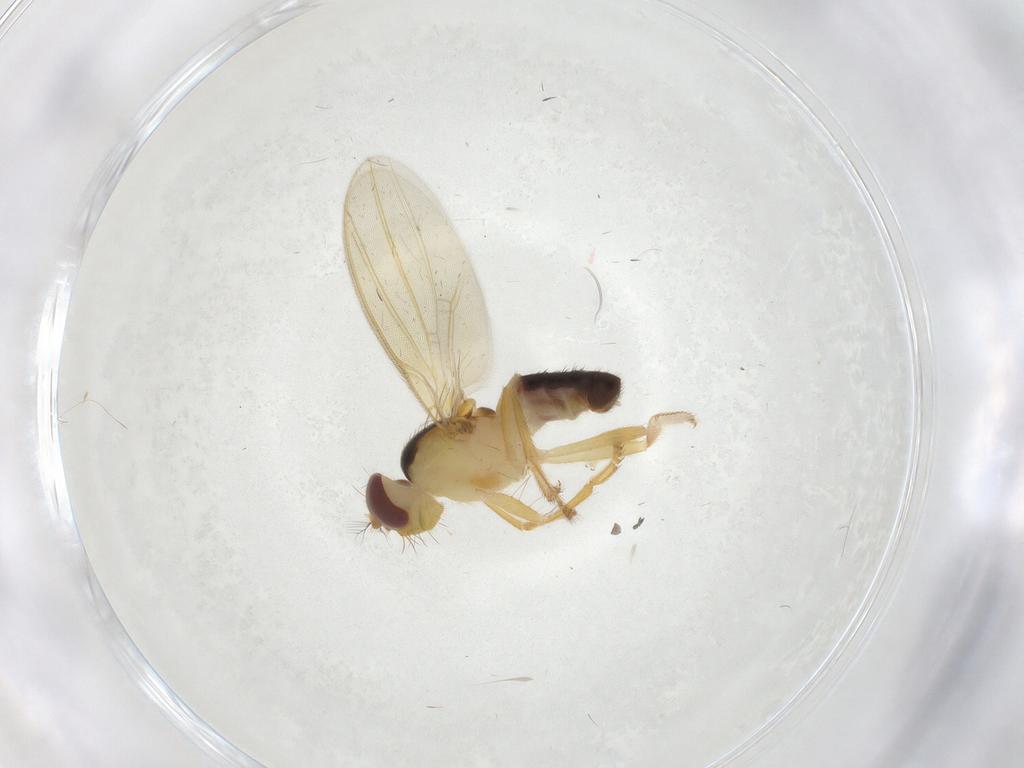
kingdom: Animalia
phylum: Arthropoda
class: Insecta
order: Diptera
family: Periscelididae
